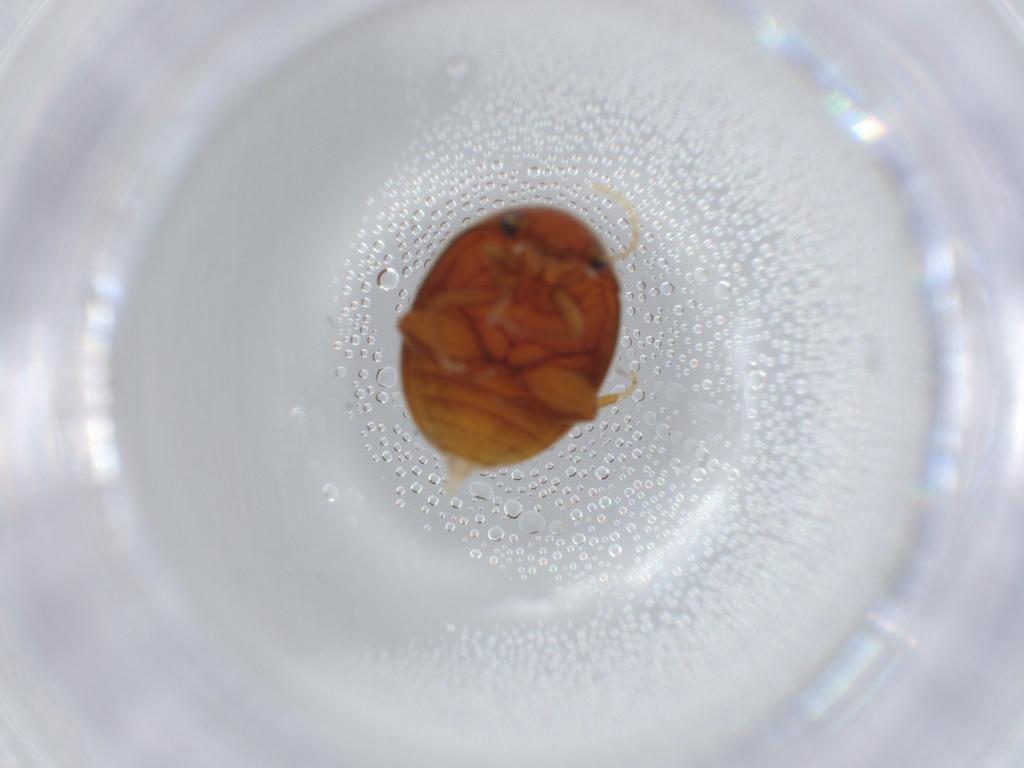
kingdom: Animalia
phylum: Arthropoda
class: Insecta
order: Coleoptera
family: Scirtidae
